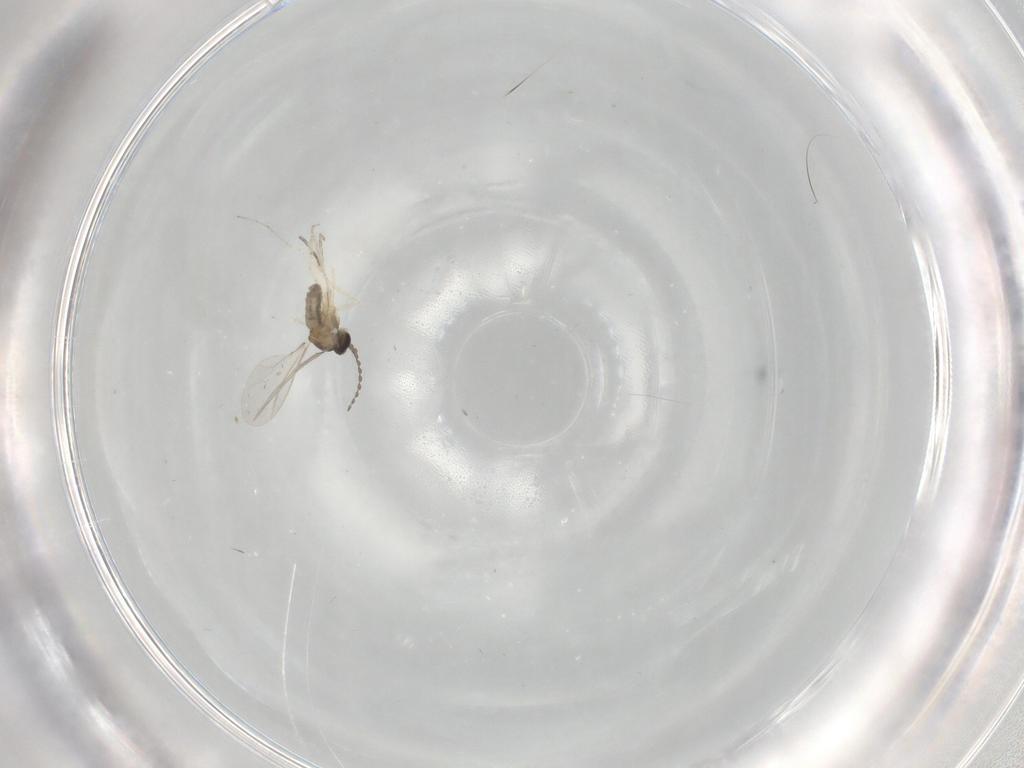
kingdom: Animalia
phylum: Arthropoda
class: Insecta
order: Diptera
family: Cecidomyiidae
